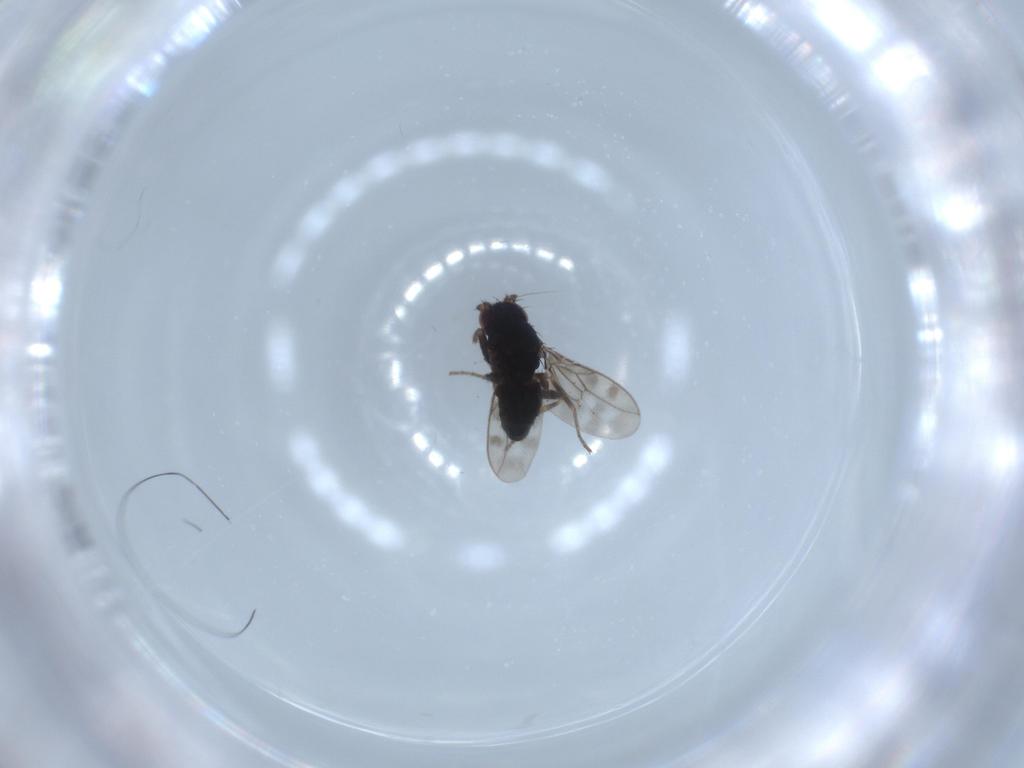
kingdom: Animalia
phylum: Arthropoda
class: Insecta
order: Diptera
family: Sphaeroceridae
